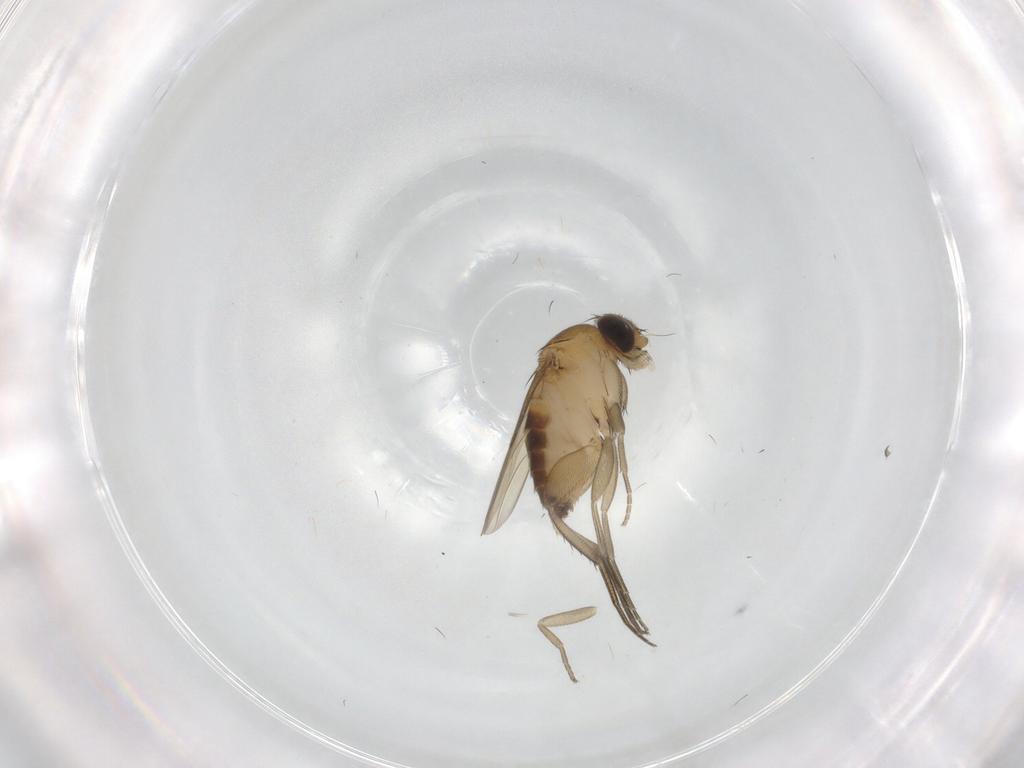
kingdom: Animalia
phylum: Arthropoda
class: Insecta
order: Diptera
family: Phoridae
